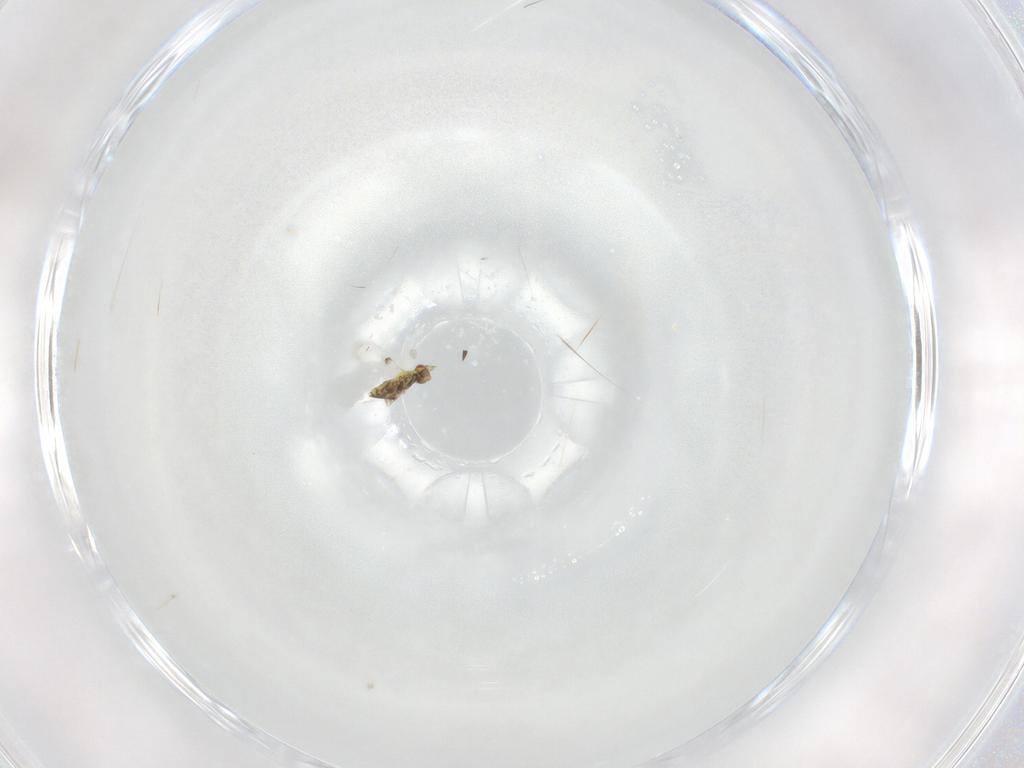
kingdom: Animalia
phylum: Arthropoda
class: Insecta
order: Hymenoptera
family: Trichogrammatidae
